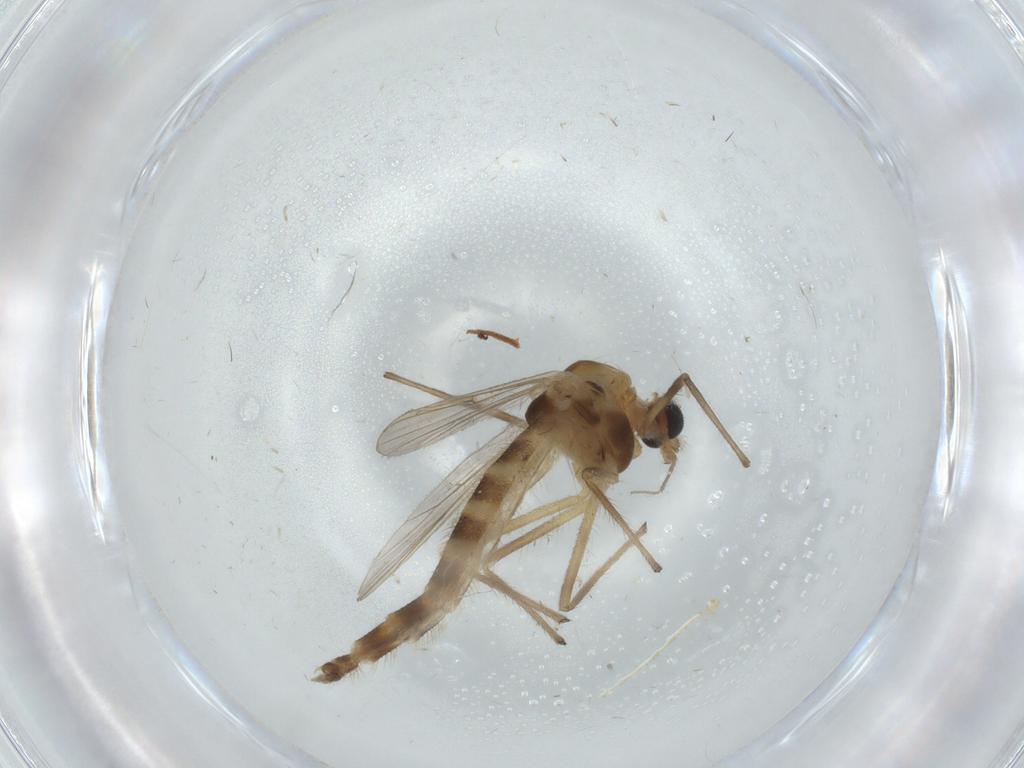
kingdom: Animalia
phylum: Arthropoda
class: Insecta
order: Diptera
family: Chironomidae
